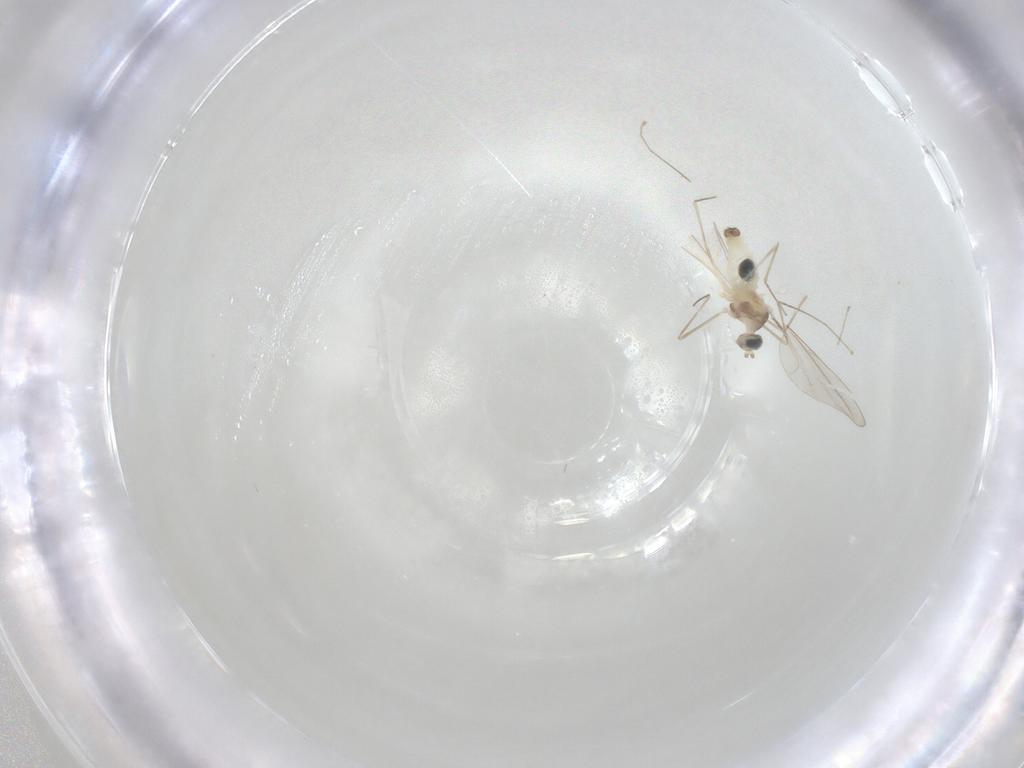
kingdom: Animalia
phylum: Arthropoda
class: Insecta
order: Diptera
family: Cecidomyiidae
